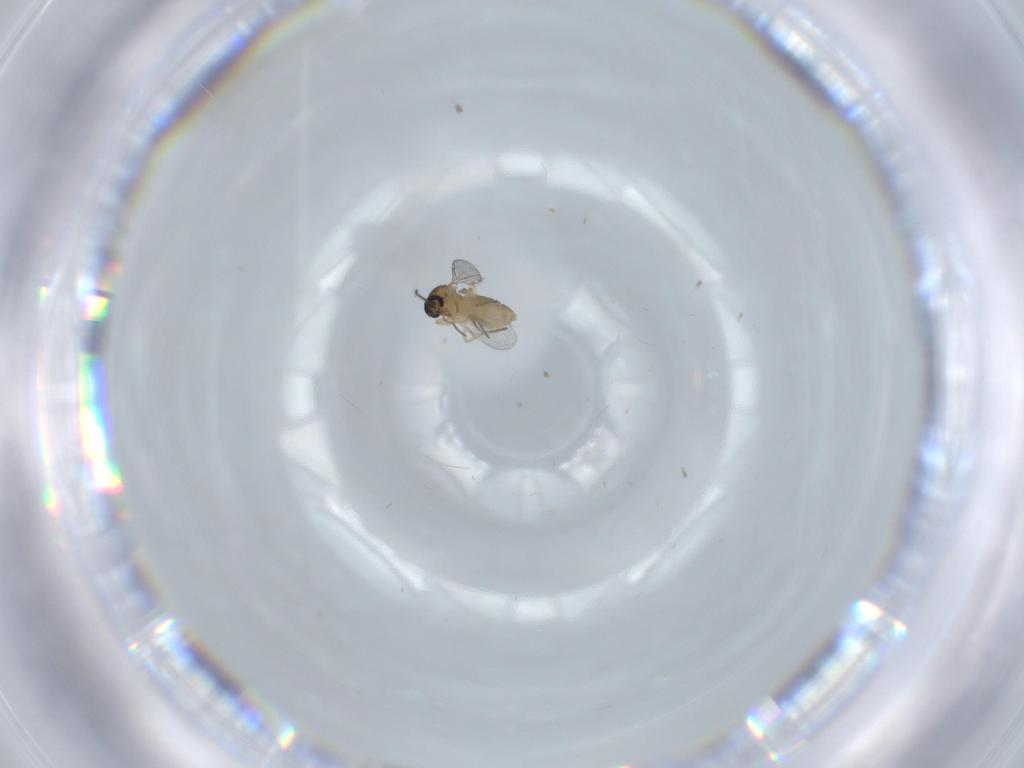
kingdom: Animalia
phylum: Arthropoda
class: Insecta
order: Diptera
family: Ceratopogonidae
